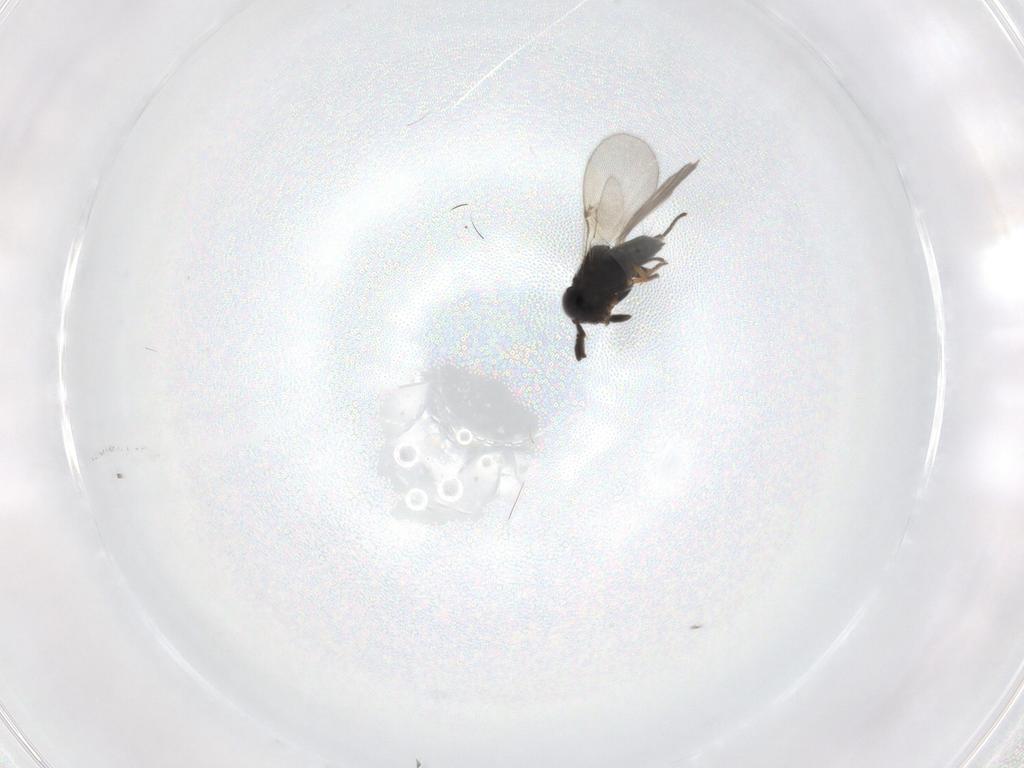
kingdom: Animalia
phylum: Arthropoda
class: Insecta
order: Hymenoptera
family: Encyrtidae
